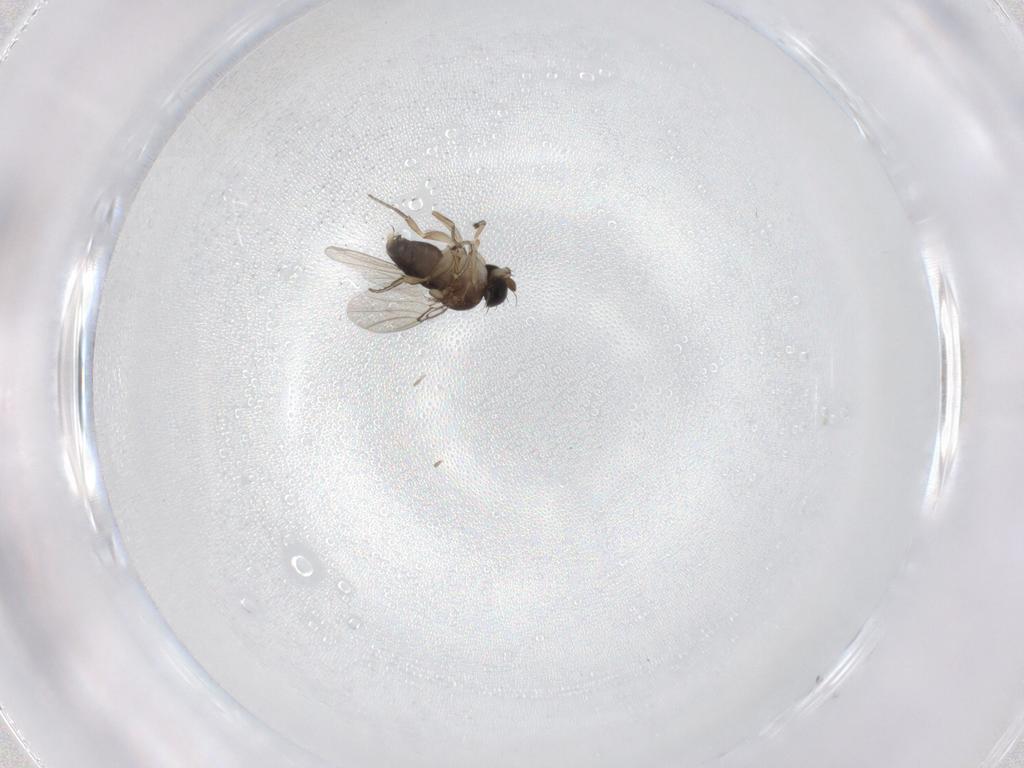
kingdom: Animalia
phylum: Arthropoda
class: Insecta
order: Diptera
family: Phoridae
